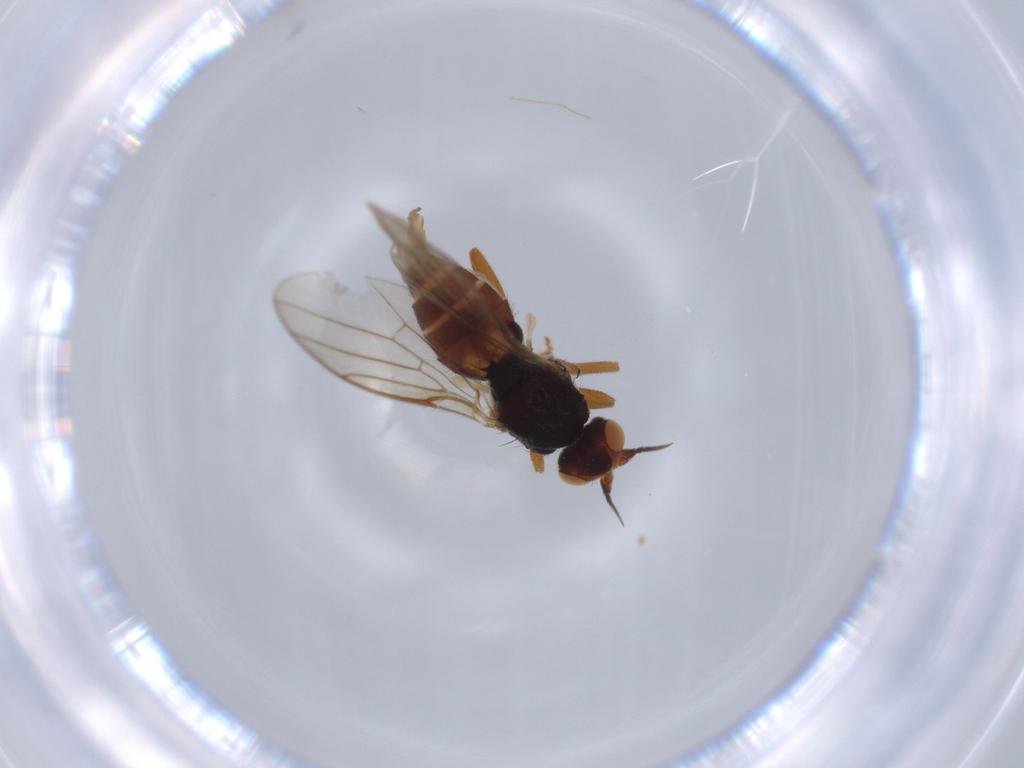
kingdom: Animalia
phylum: Arthropoda
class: Insecta
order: Diptera
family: Chloropidae
